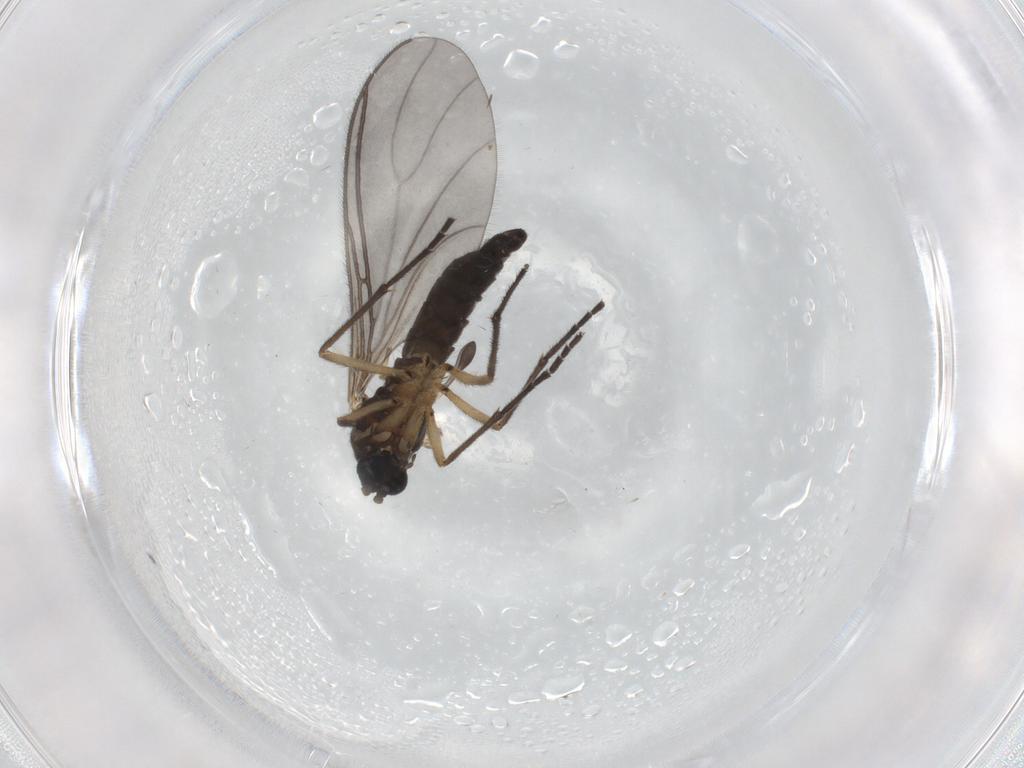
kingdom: Animalia
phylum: Arthropoda
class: Insecta
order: Diptera
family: Sciaridae
